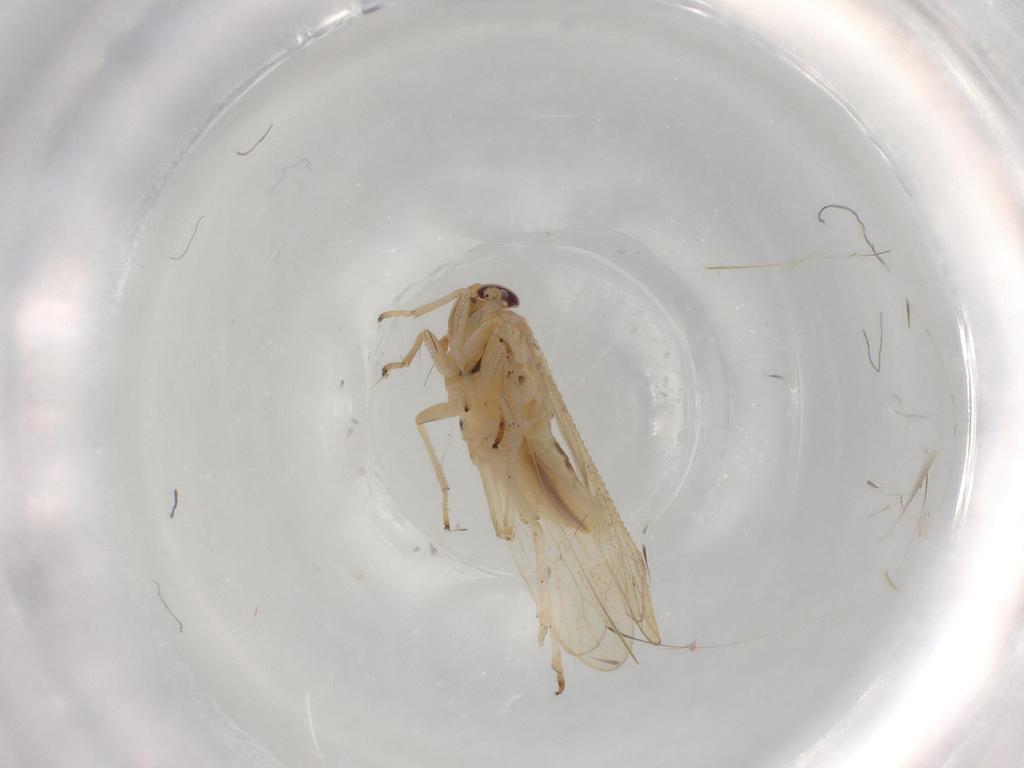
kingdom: Animalia
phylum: Arthropoda
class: Insecta
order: Hemiptera
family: Delphacidae
